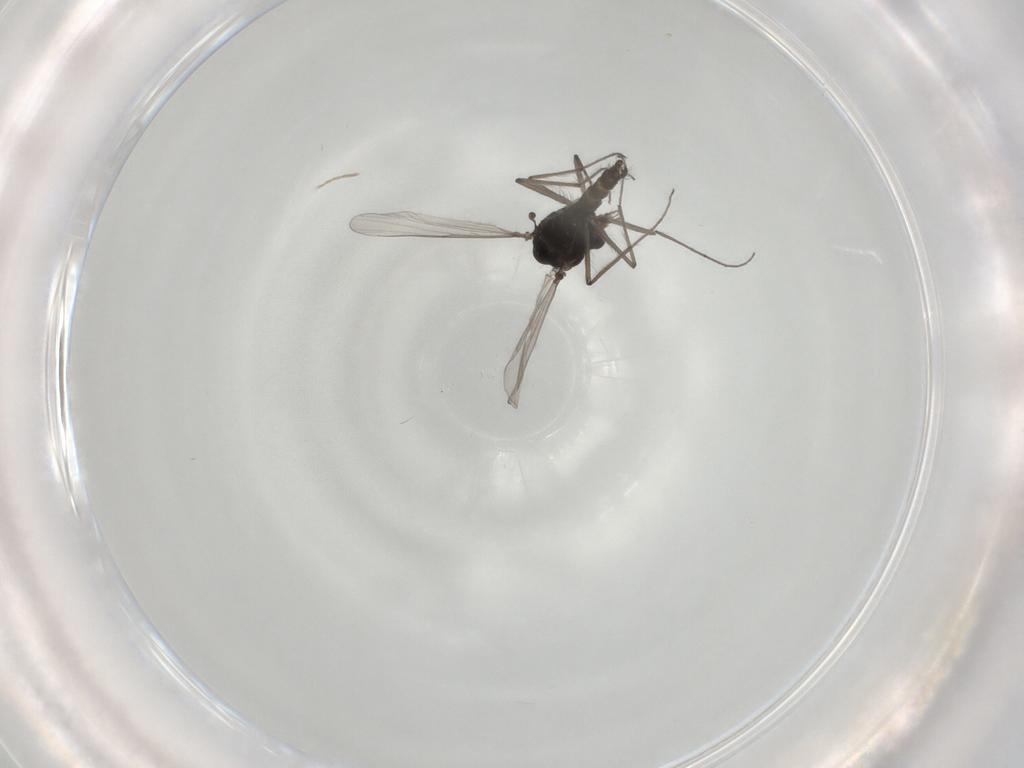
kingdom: Animalia
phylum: Arthropoda
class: Insecta
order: Diptera
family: Chironomidae
